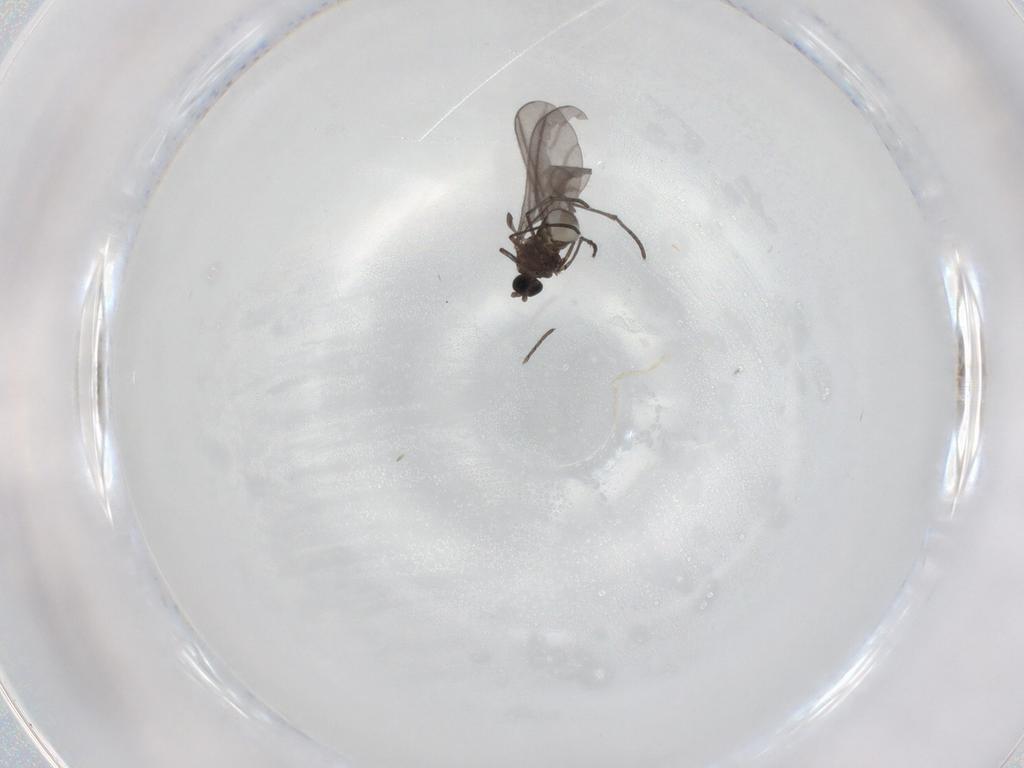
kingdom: Animalia
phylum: Arthropoda
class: Insecta
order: Diptera
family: Sciaridae
